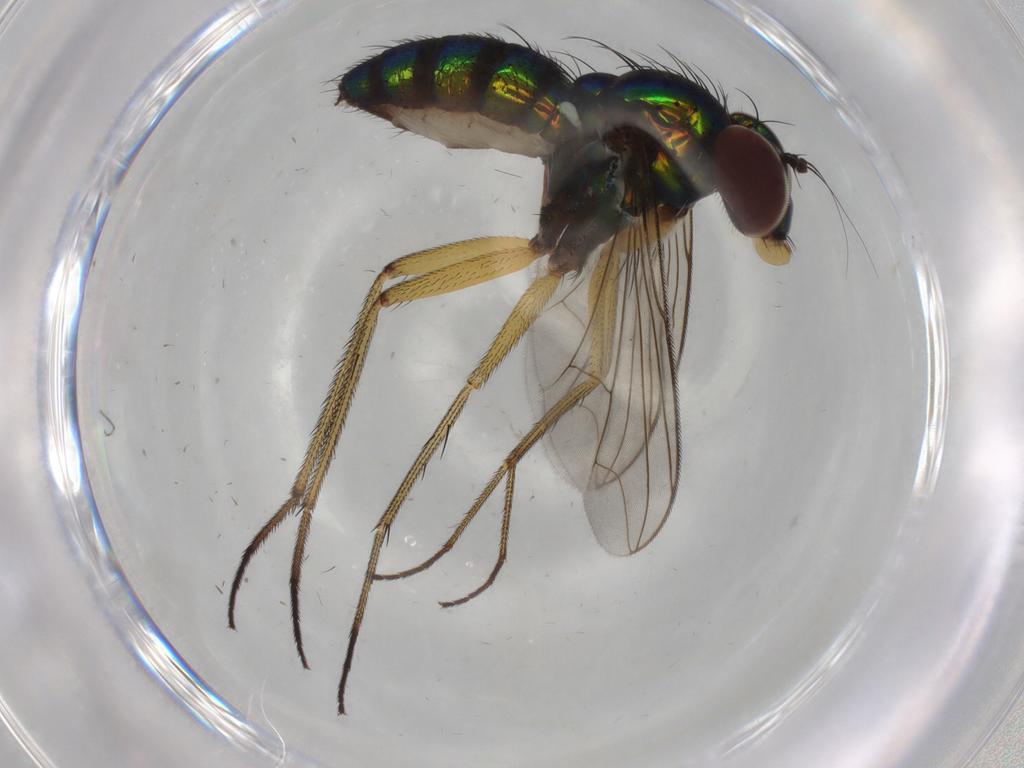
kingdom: Animalia
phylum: Arthropoda
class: Insecta
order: Diptera
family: Dolichopodidae
